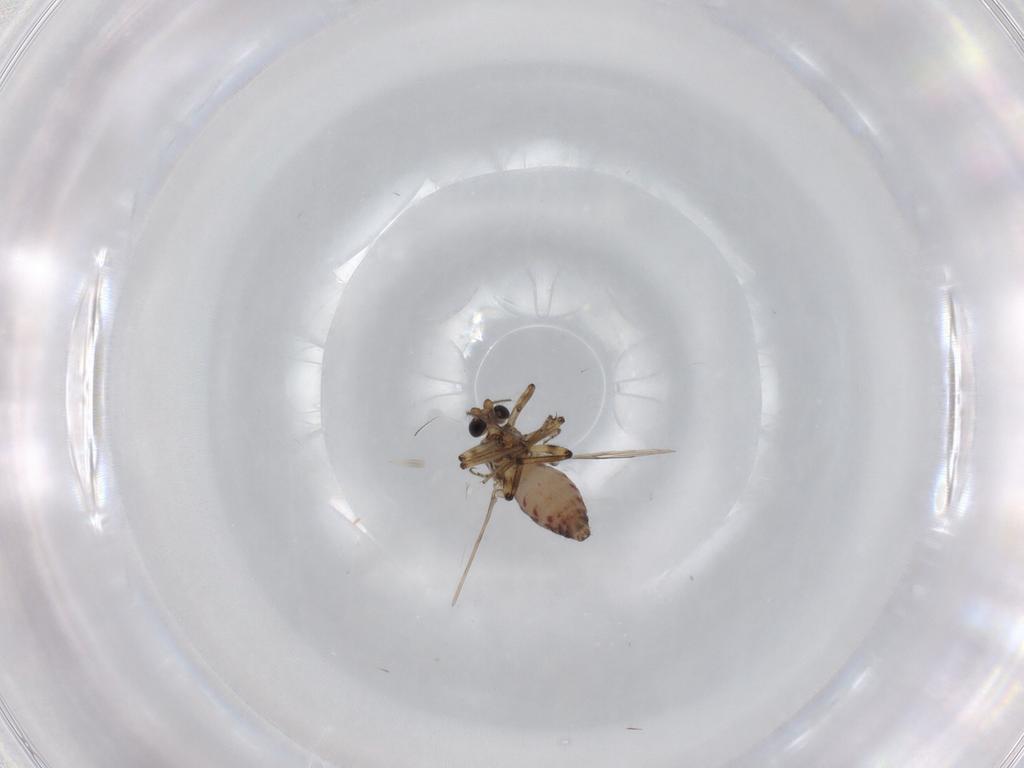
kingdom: Animalia
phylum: Arthropoda
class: Insecta
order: Diptera
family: Ceratopogonidae
